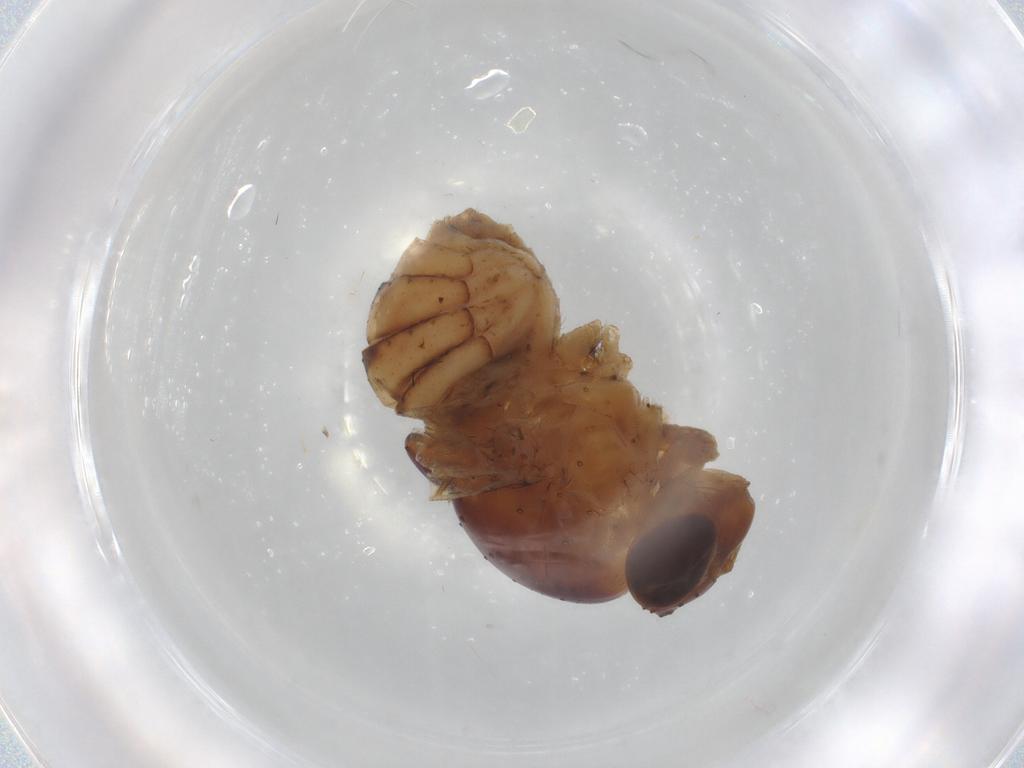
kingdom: Animalia
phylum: Arthropoda
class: Insecta
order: Diptera
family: Ephydridae
